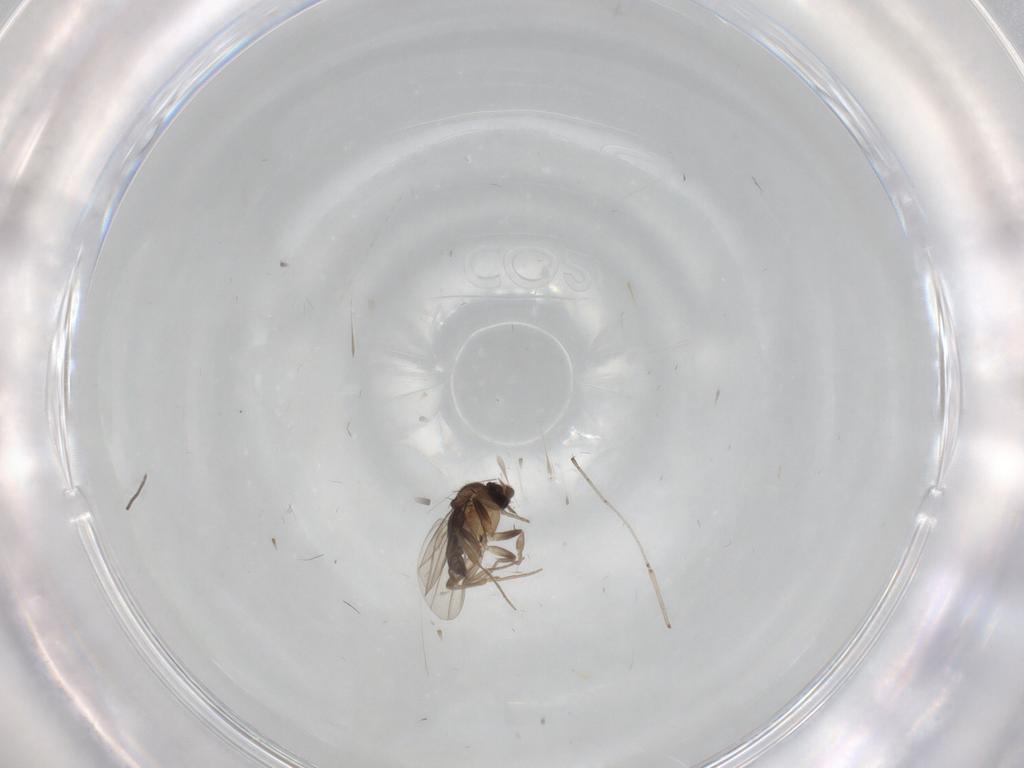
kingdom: Animalia
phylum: Arthropoda
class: Insecta
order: Diptera
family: Phoridae
